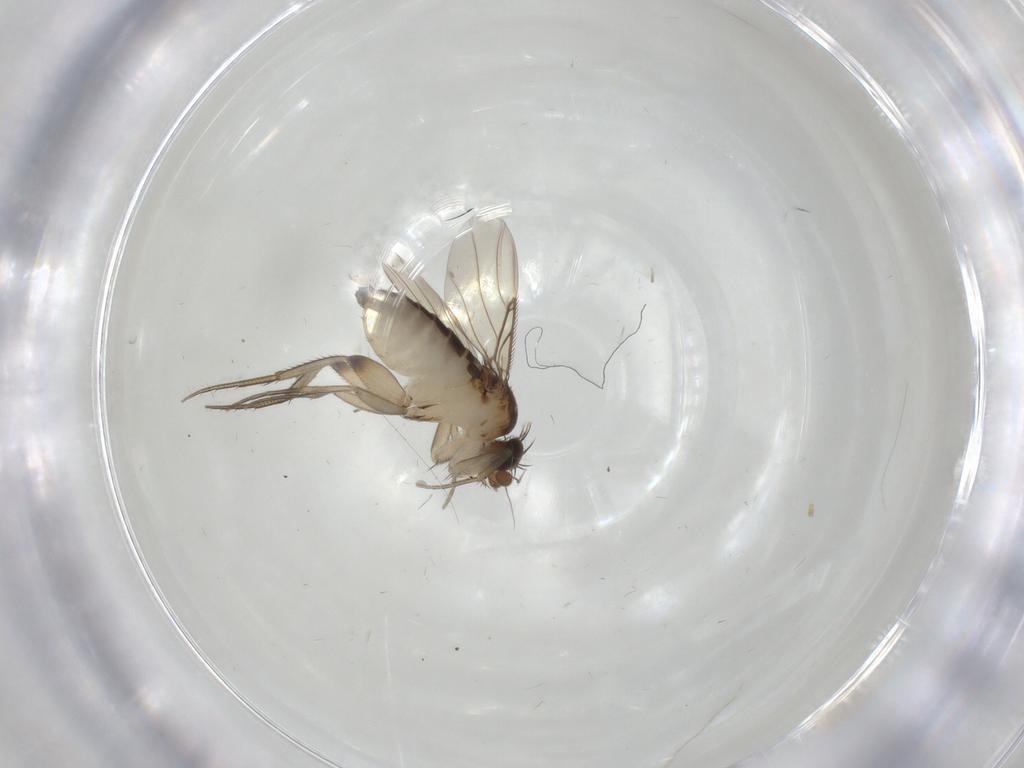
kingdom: Animalia
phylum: Arthropoda
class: Insecta
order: Diptera
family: Phoridae
